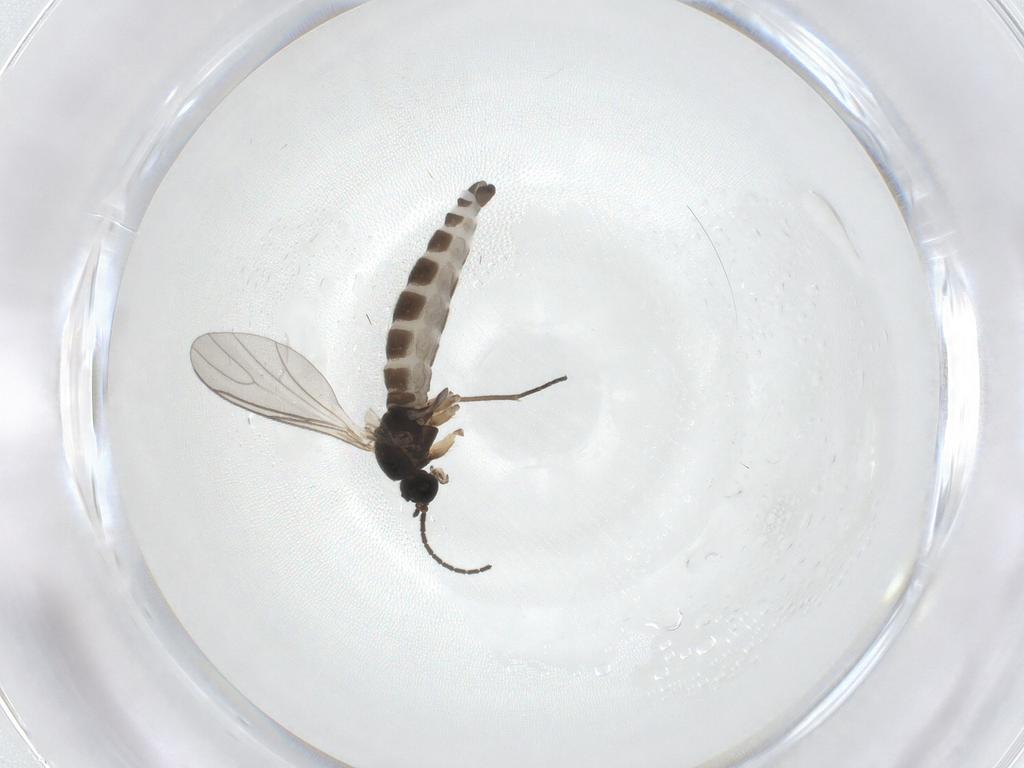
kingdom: Animalia
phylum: Arthropoda
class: Insecta
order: Diptera
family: Chironomidae
